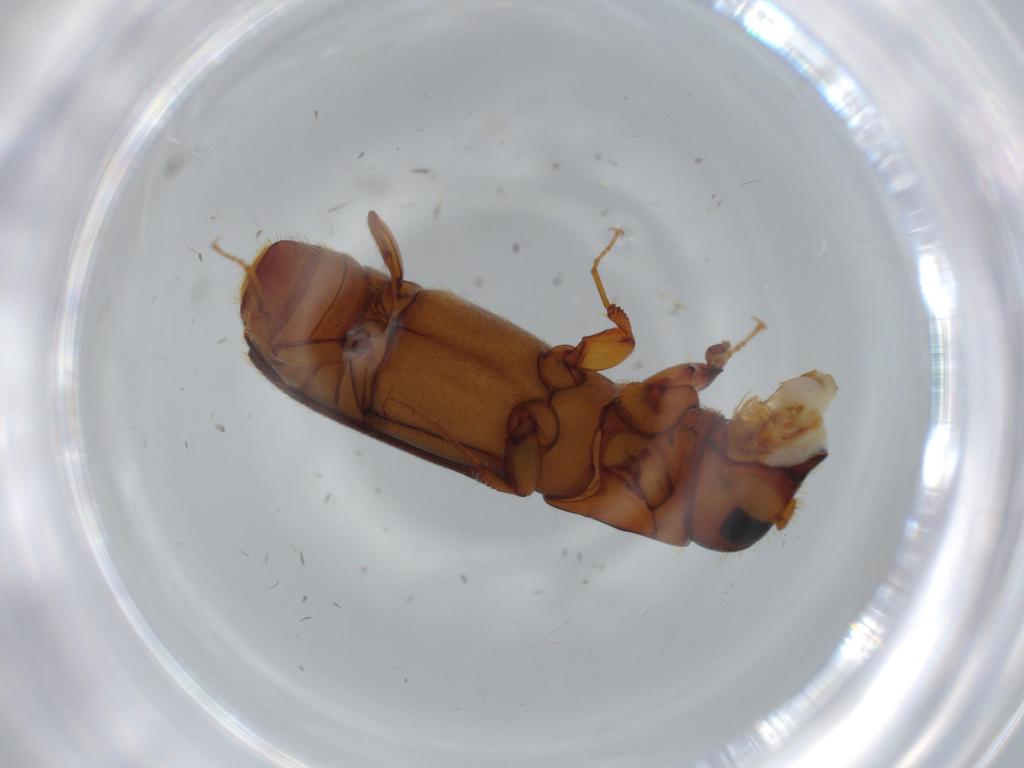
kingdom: Animalia
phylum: Arthropoda
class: Insecta
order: Coleoptera
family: Curculionidae
